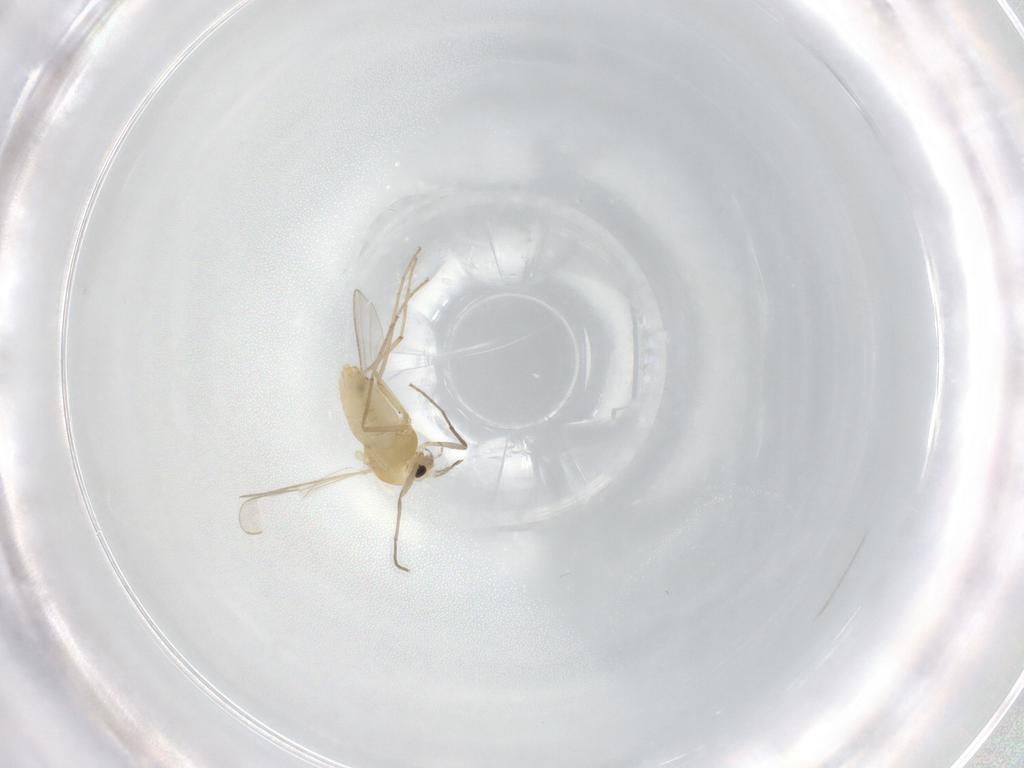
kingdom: Animalia
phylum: Arthropoda
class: Insecta
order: Diptera
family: Chironomidae
